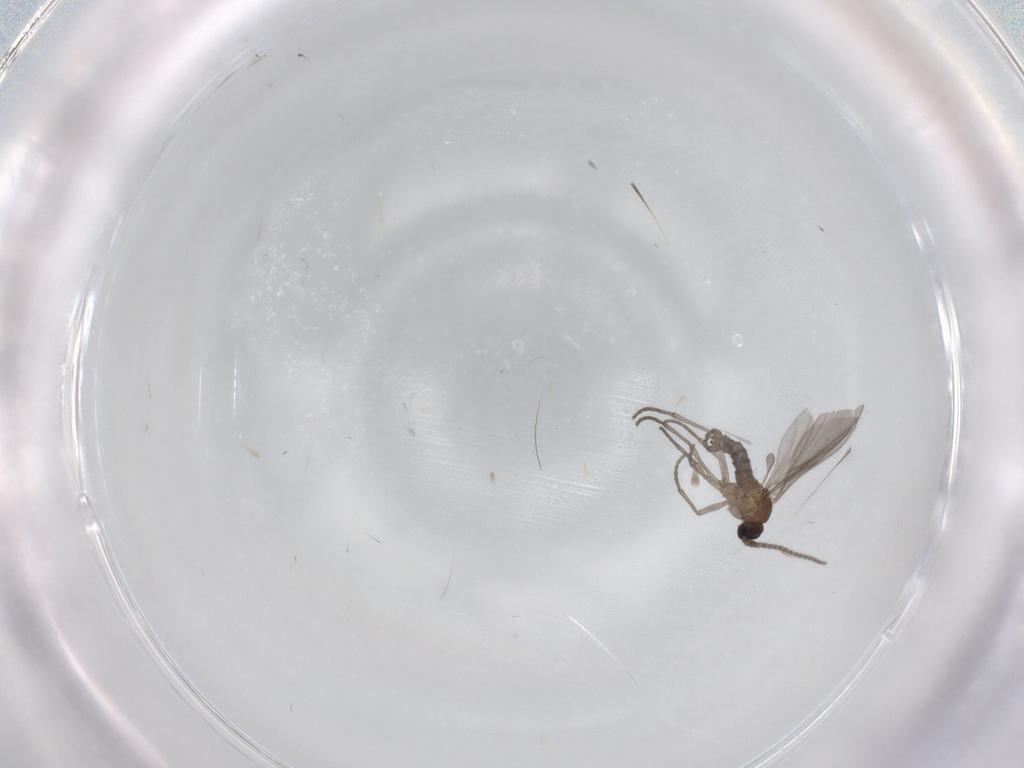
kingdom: Animalia
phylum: Arthropoda
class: Insecta
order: Diptera
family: Sciaridae
